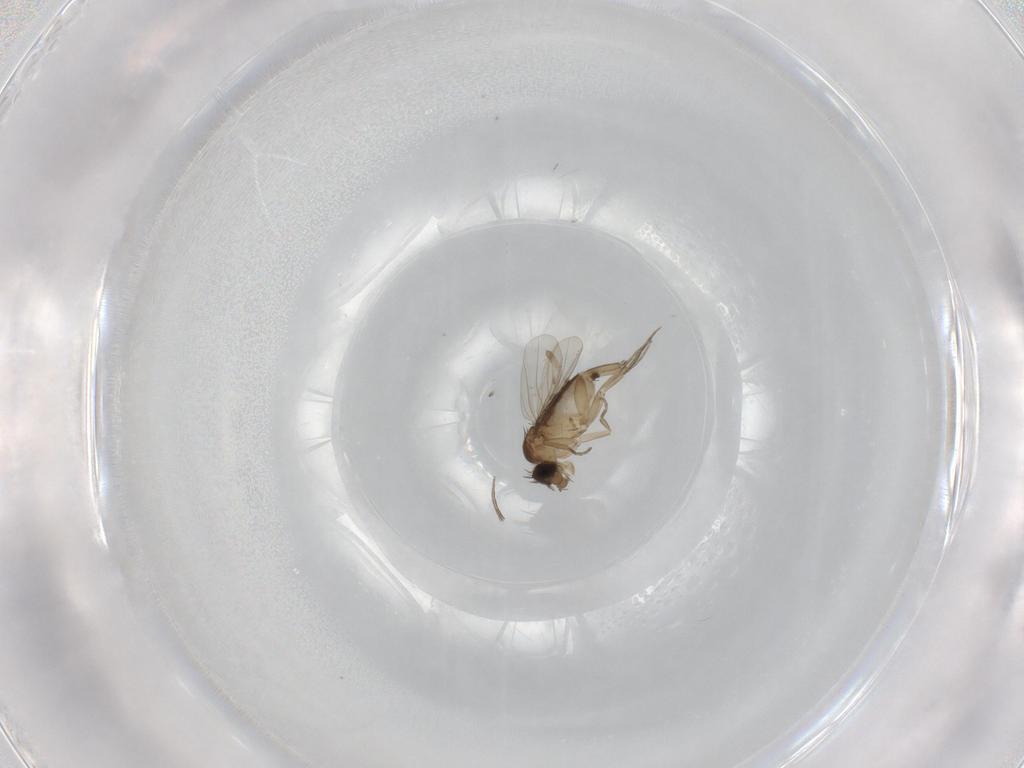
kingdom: Animalia
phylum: Arthropoda
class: Insecta
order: Diptera
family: Phoridae
